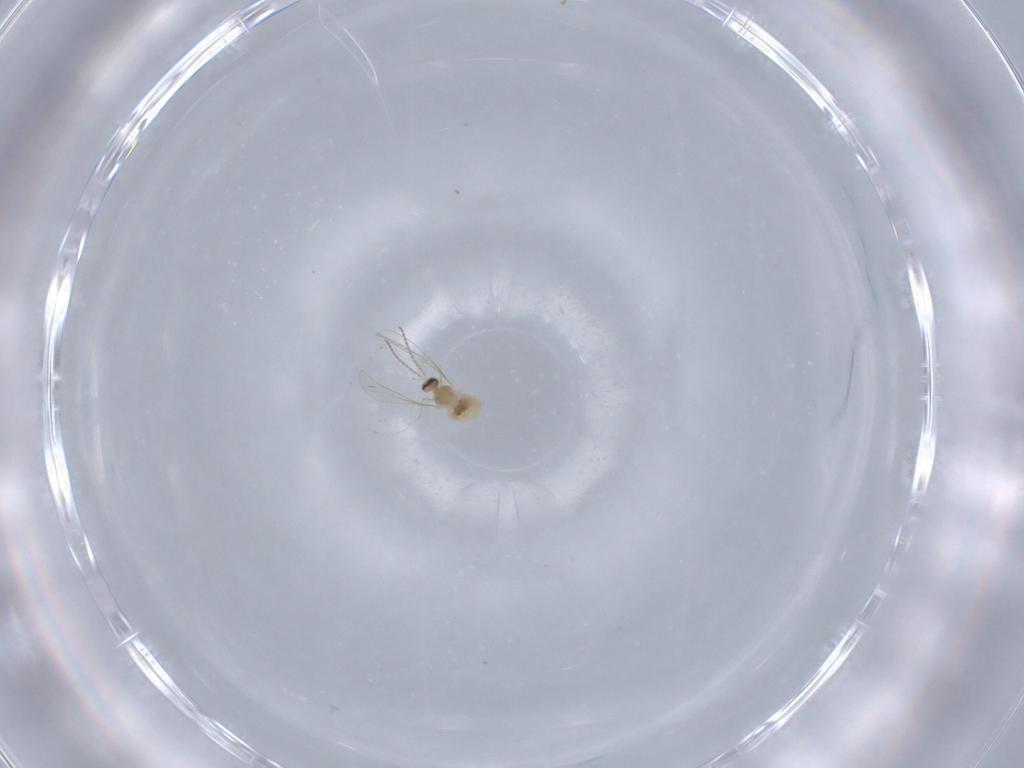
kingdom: Animalia
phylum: Arthropoda
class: Insecta
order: Diptera
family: Cecidomyiidae
